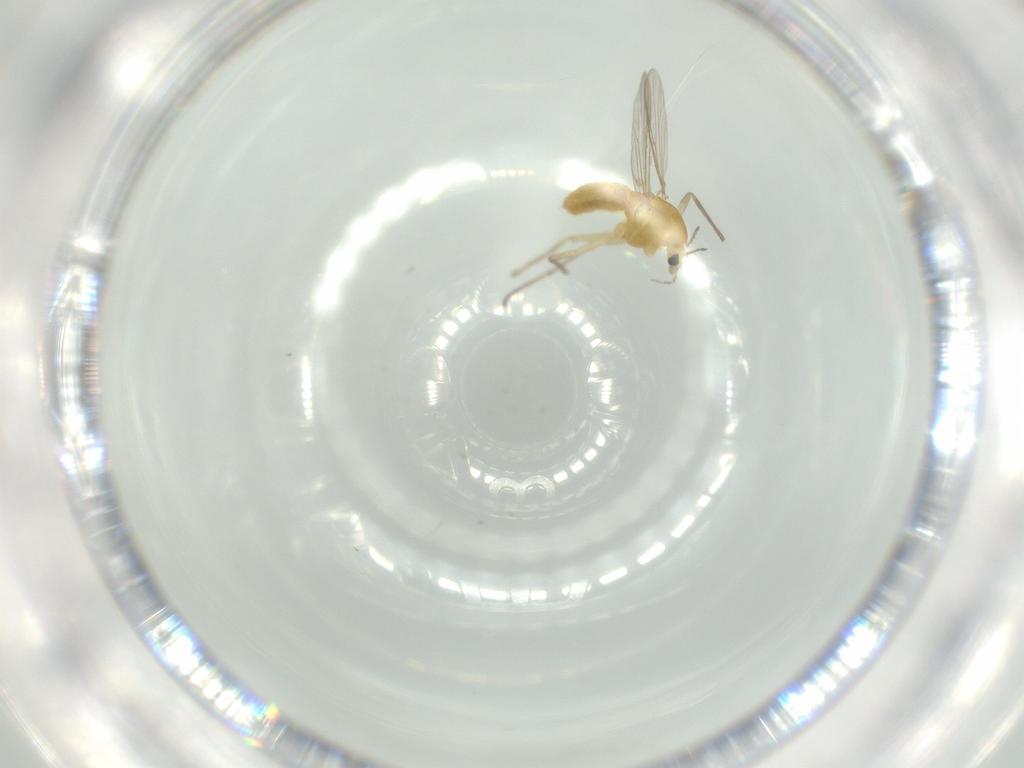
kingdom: Animalia
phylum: Arthropoda
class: Insecta
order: Diptera
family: Chironomidae
